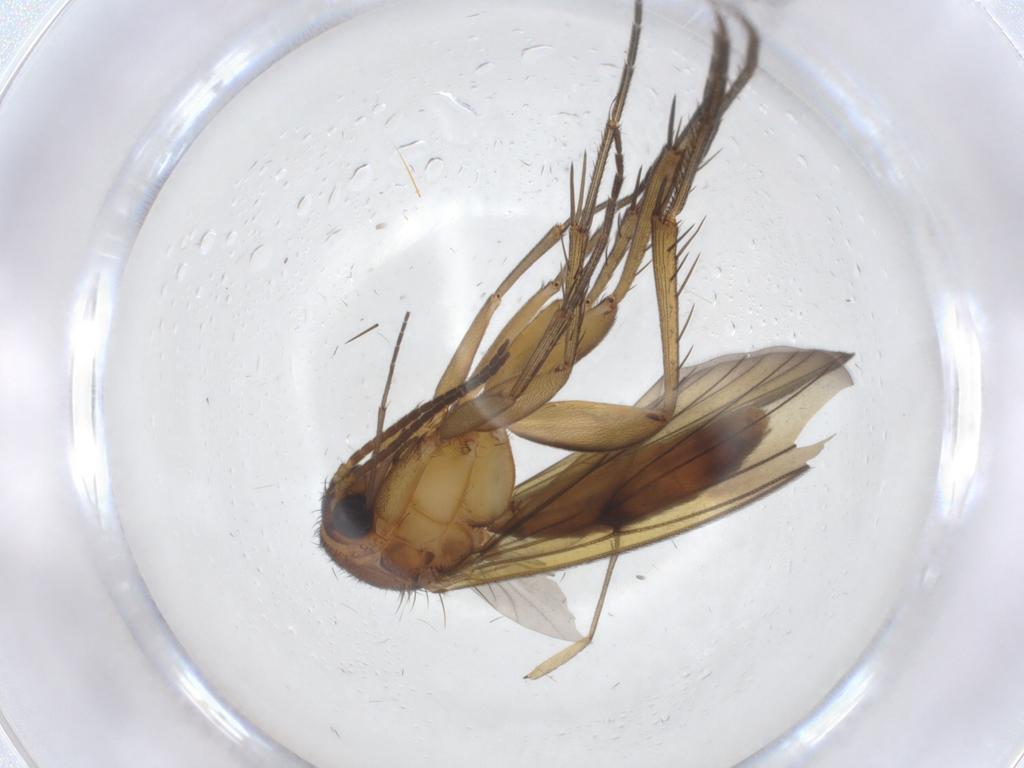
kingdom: Animalia
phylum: Arthropoda
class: Insecta
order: Diptera
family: Mycetophilidae
